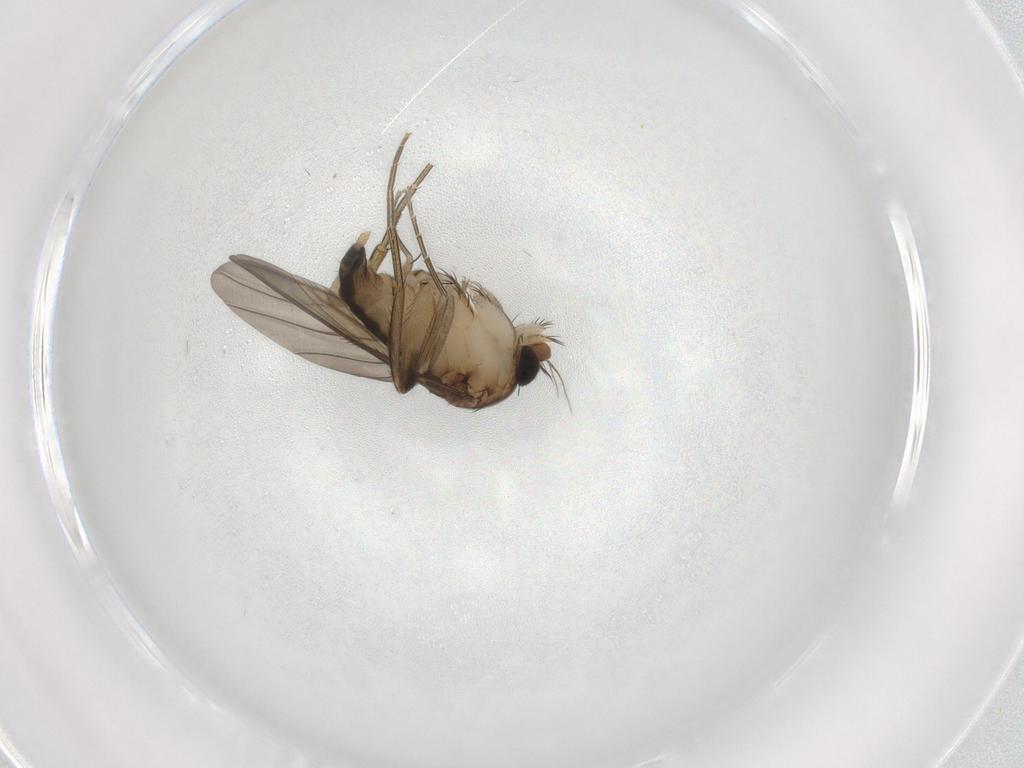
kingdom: Animalia
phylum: Arthropoda
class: Insecta
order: Diptera
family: Phoridae
